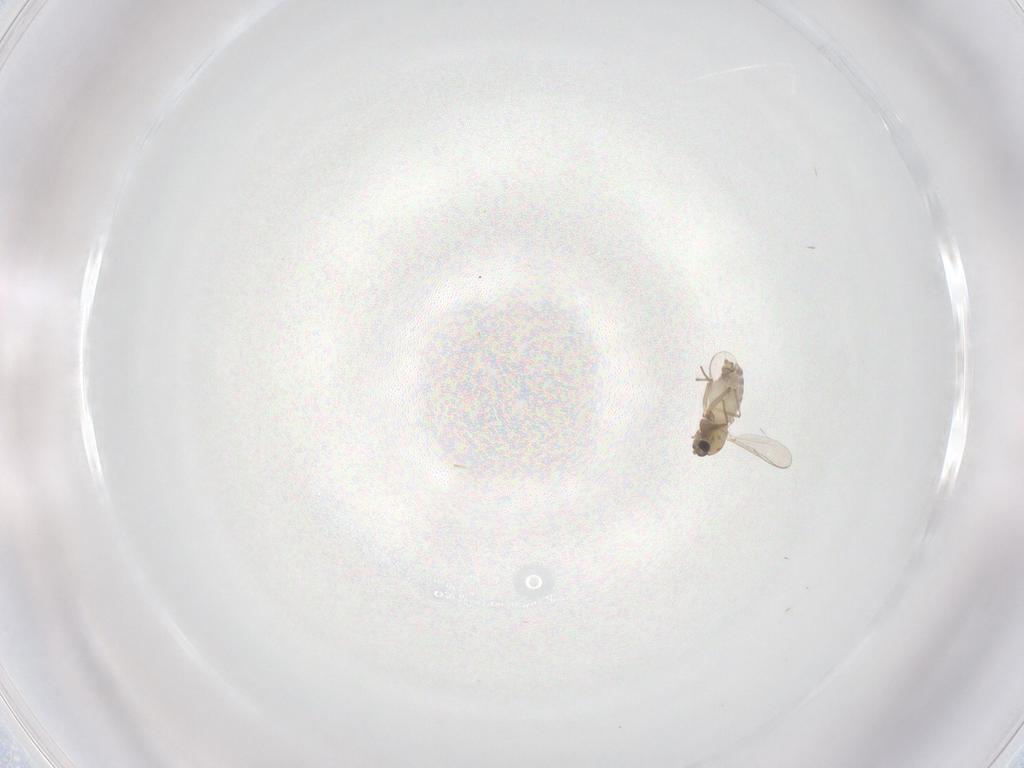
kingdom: Animalia
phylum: Arthropoda
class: Insecta
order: Diptera
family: Chironomidae
